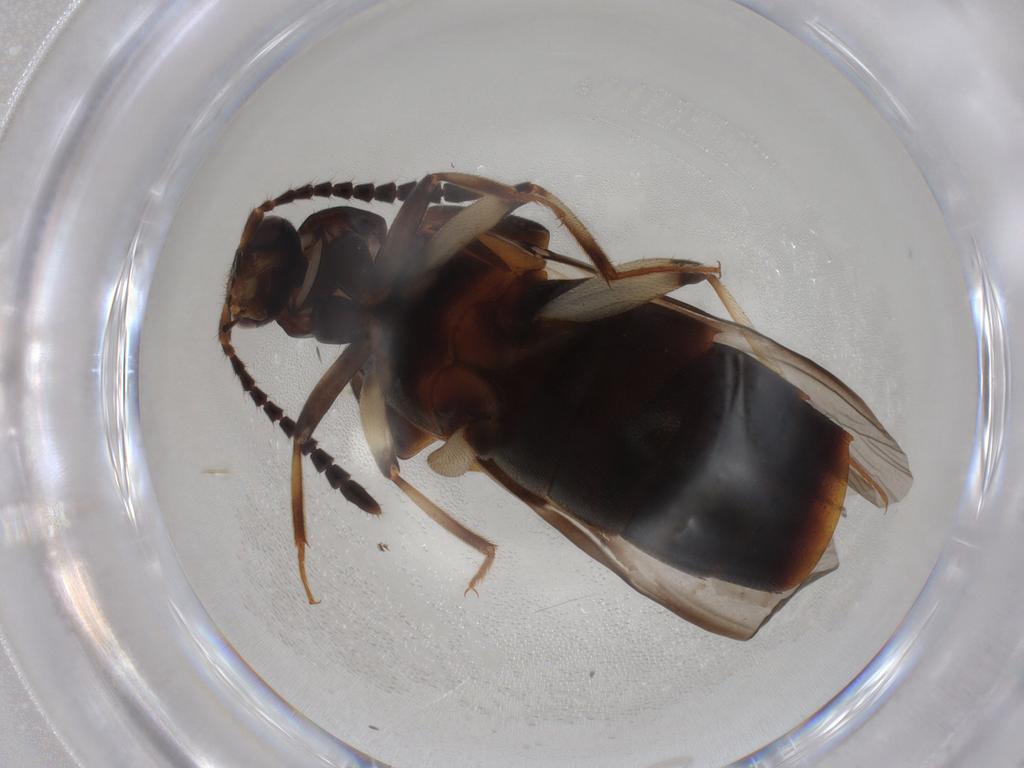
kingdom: Animalia
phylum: Arthropoda
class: Insecta
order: Coleoptera
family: Staphylinidae
